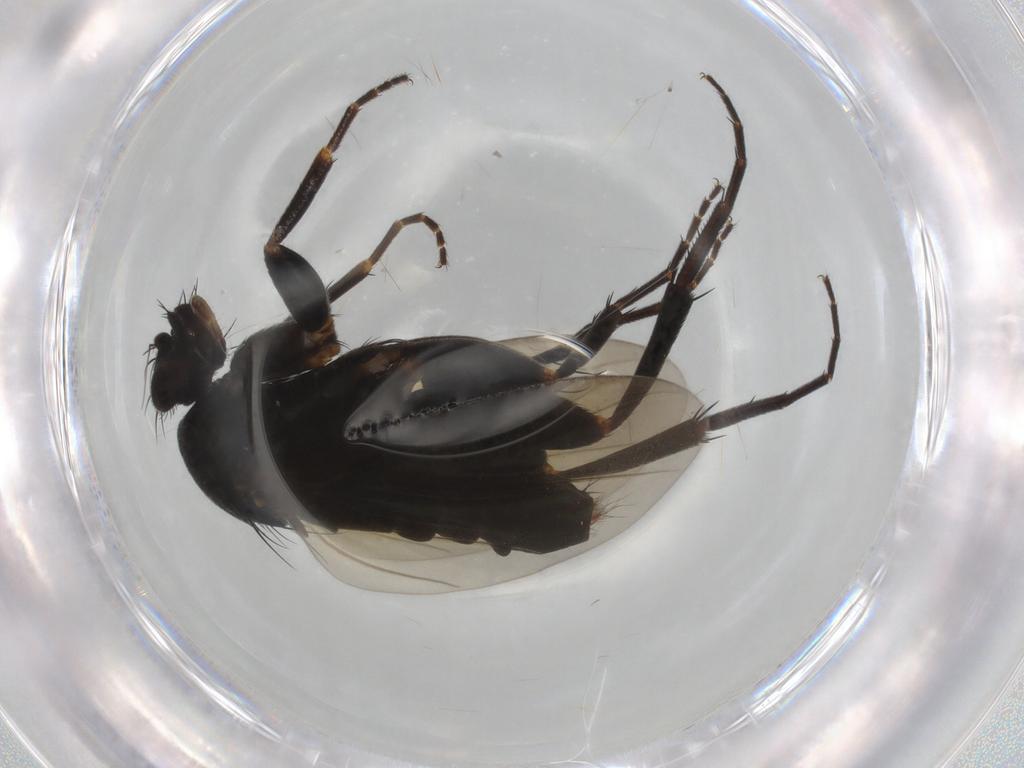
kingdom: Animalia
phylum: Arthropoda
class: Insecta
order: Diptera
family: Phoridae
